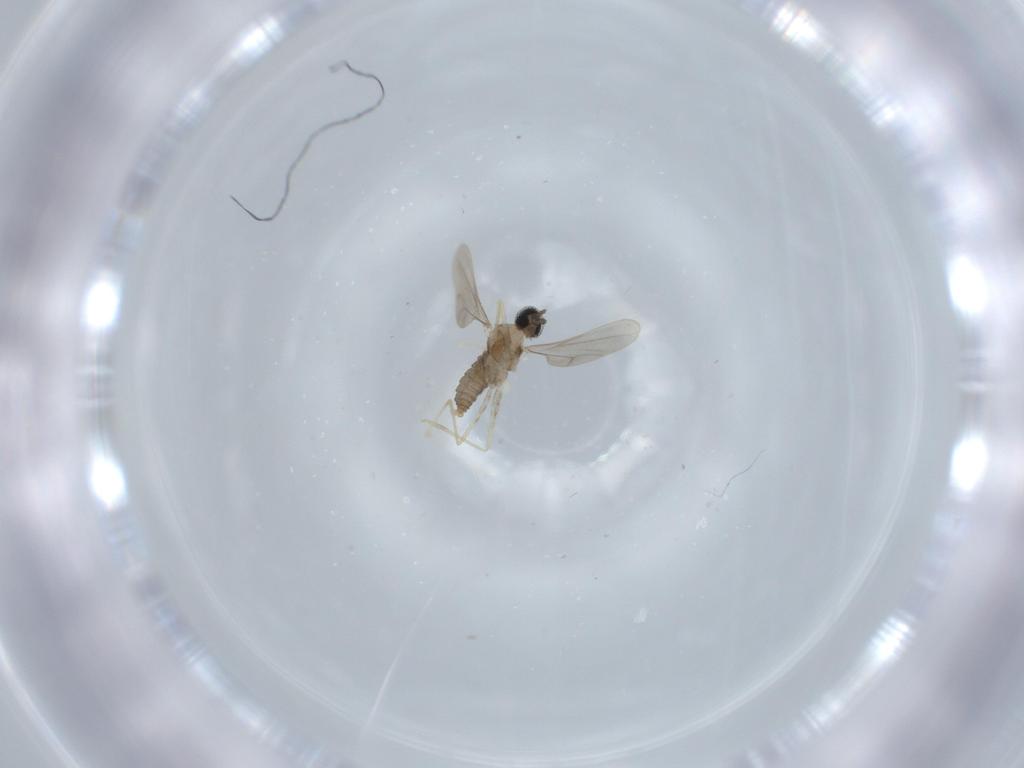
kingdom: Animalia
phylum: Arthropoda
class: Insecta
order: Diptera
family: Cecidomyiidae
